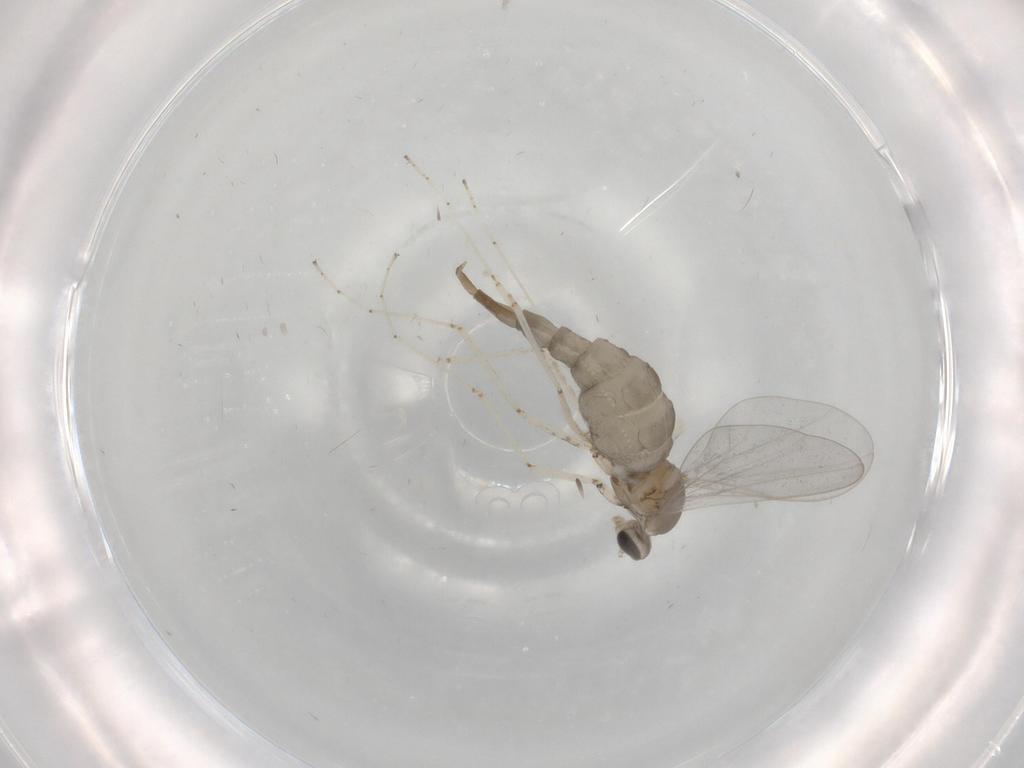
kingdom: Animalia
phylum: Arthropoda
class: Insecta
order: Diptera
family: Cecidomyiidae
